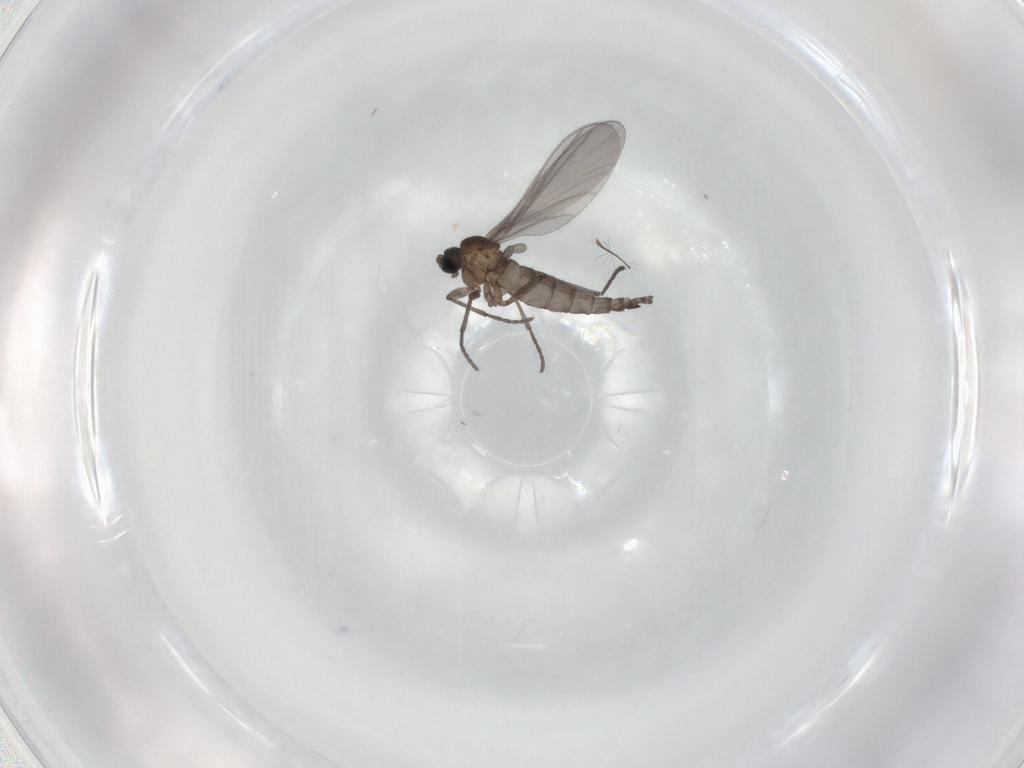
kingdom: Animalia
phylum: Arthropoda
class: Insecta
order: Diptera
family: Sciaridae
